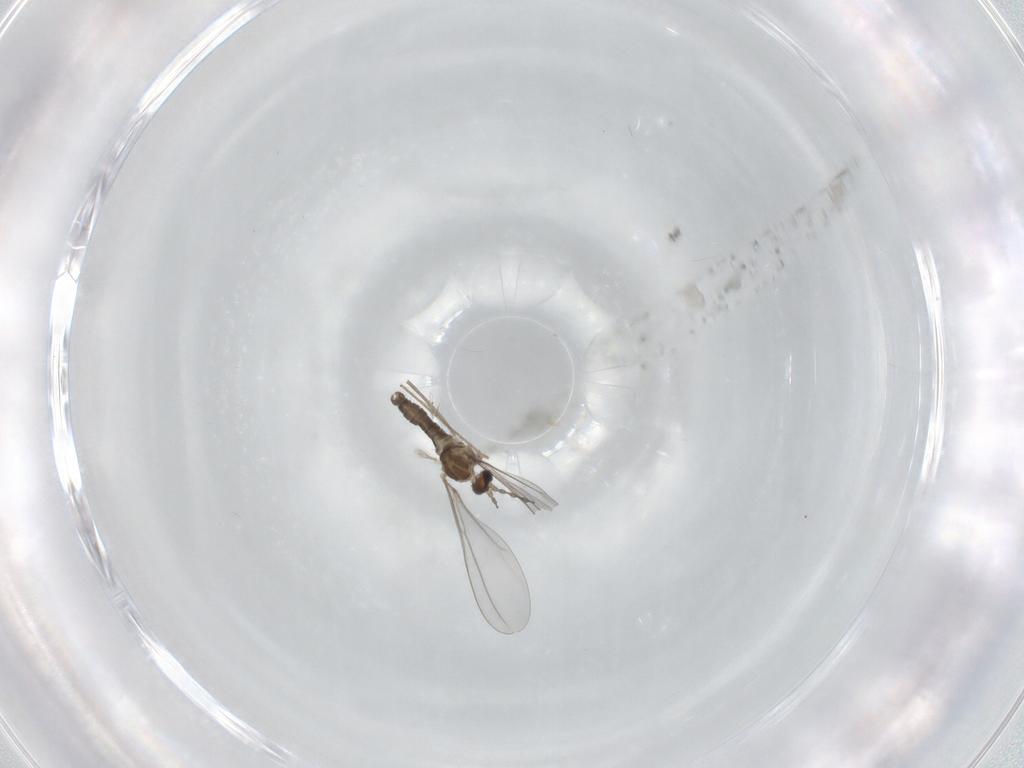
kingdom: Animalia
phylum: Arthropoda
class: Insecta
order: Diptera
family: Cecidomyiidae
